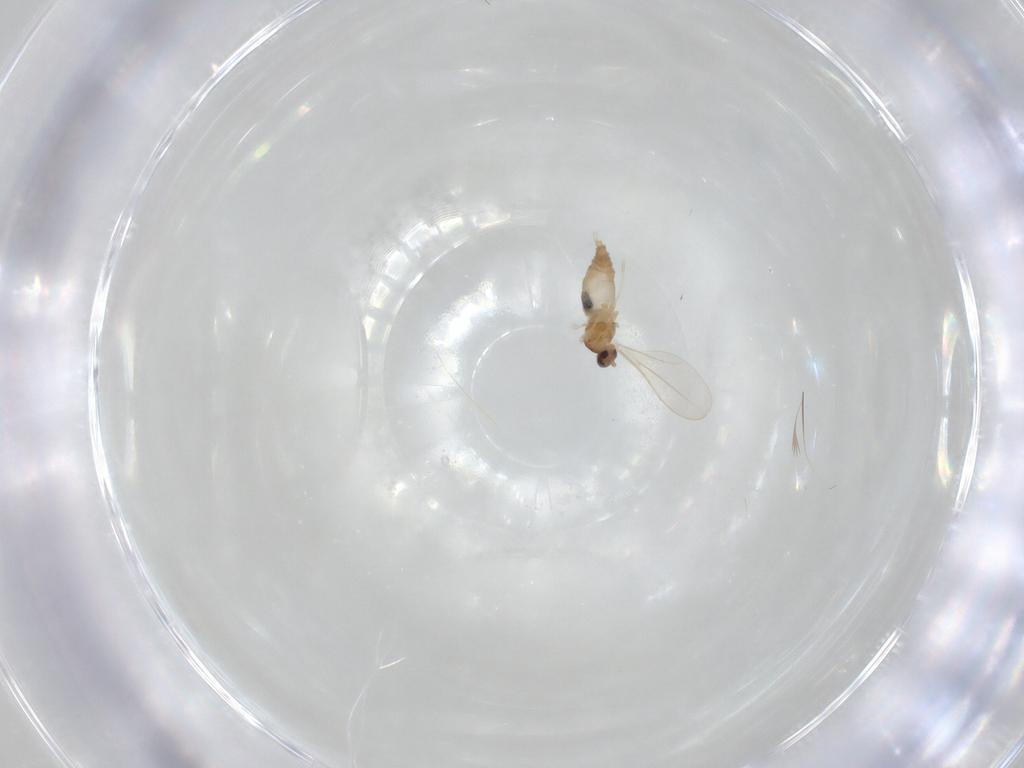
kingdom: Animalia
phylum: Arthropoda
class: Insecta
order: Diptera
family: Cecidomyiidae
